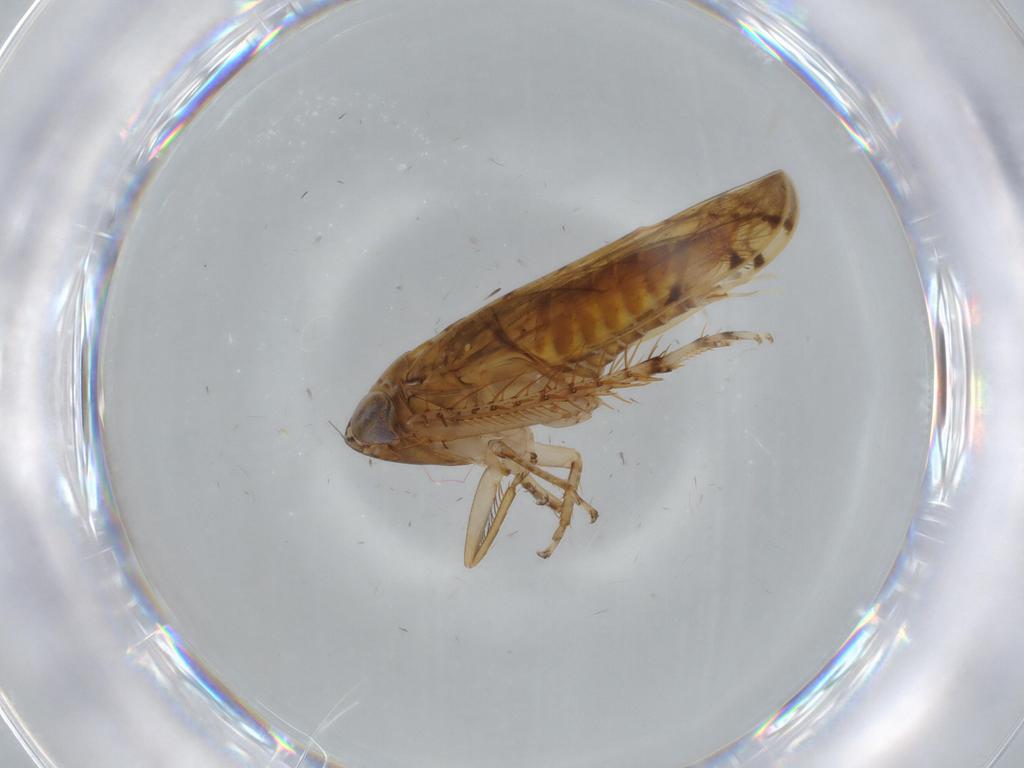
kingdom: Animalia
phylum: Arthropoda
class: Insecta
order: Hemiptera
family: Cicadellidae
